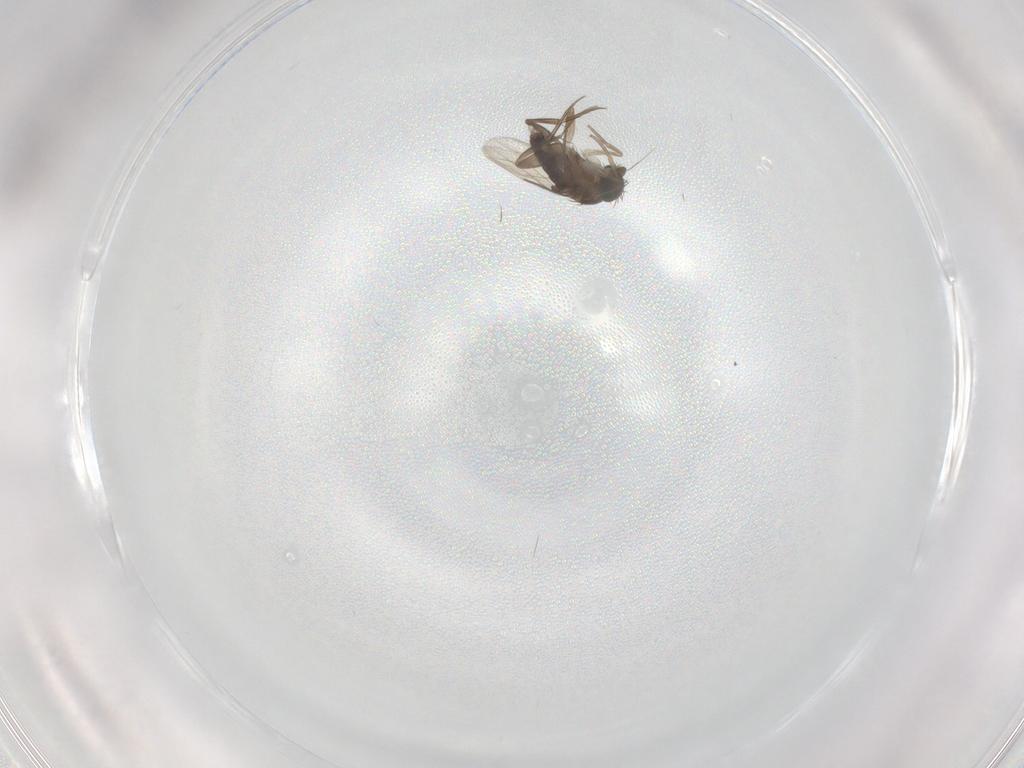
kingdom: Animalia
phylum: Arthropoda
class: Insecta
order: Diptera
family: Phoridae
